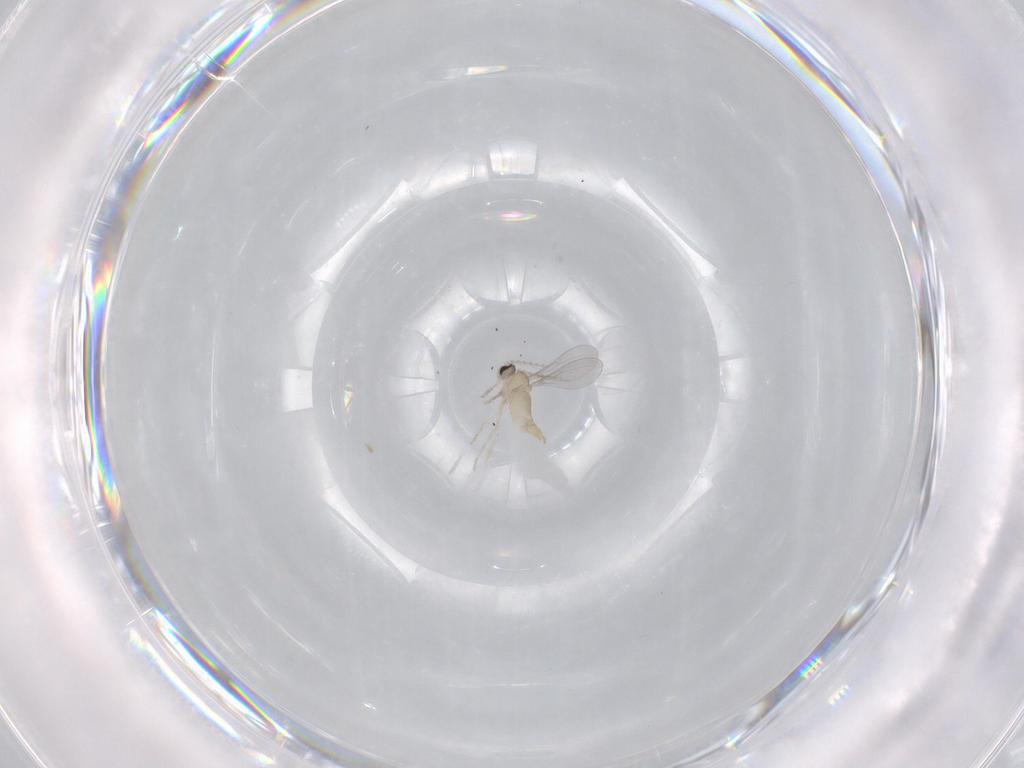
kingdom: Animalia
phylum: Arthropoda
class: Insecta
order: Diptera
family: Cecidomyiidae
